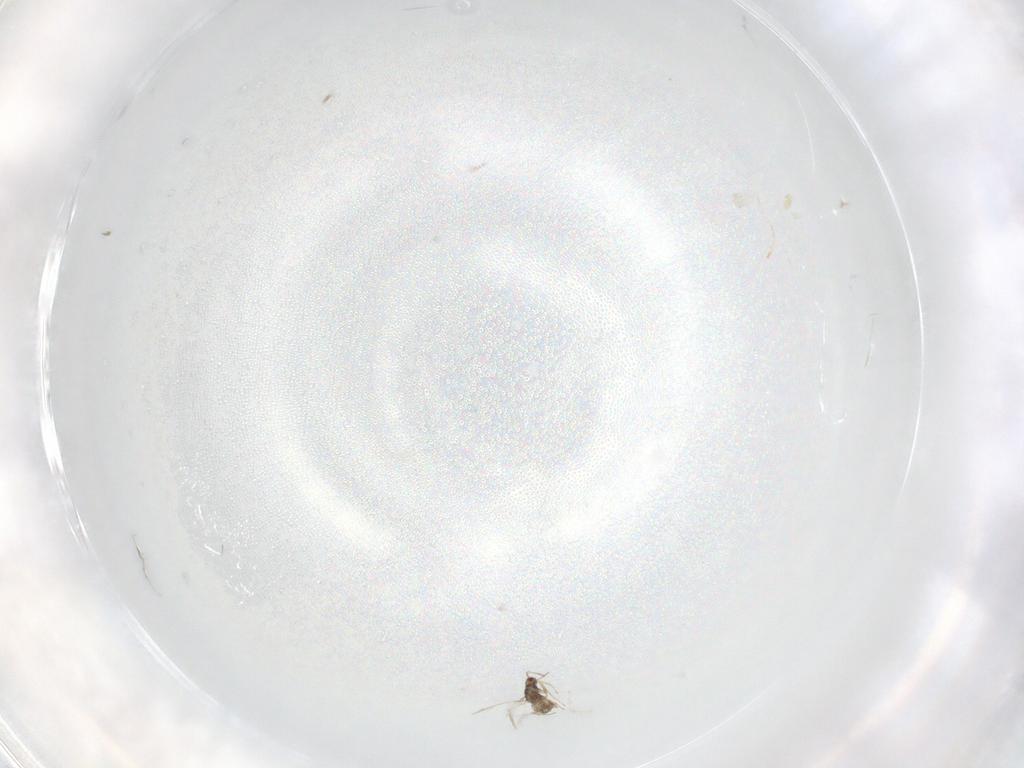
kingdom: Animalia
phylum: Arthropoda
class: Insecta
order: Hymenoptera
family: Mymaridae
